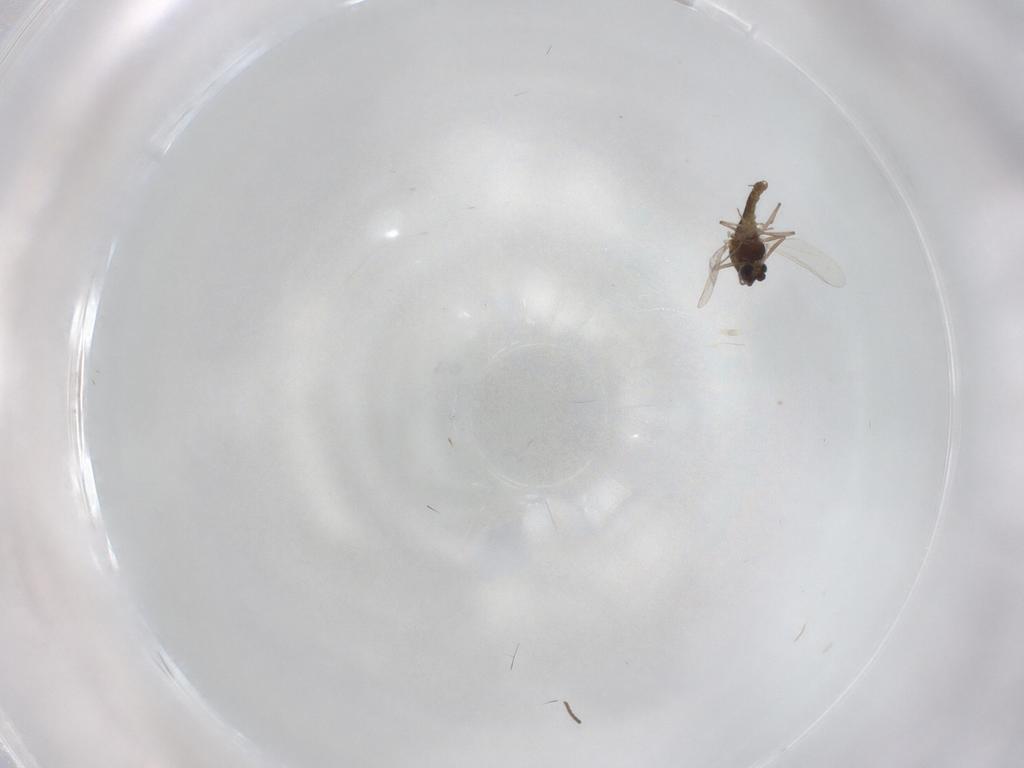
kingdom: Animalia
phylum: Arthropoda
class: Insecta
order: Diptera
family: Chironomidae
